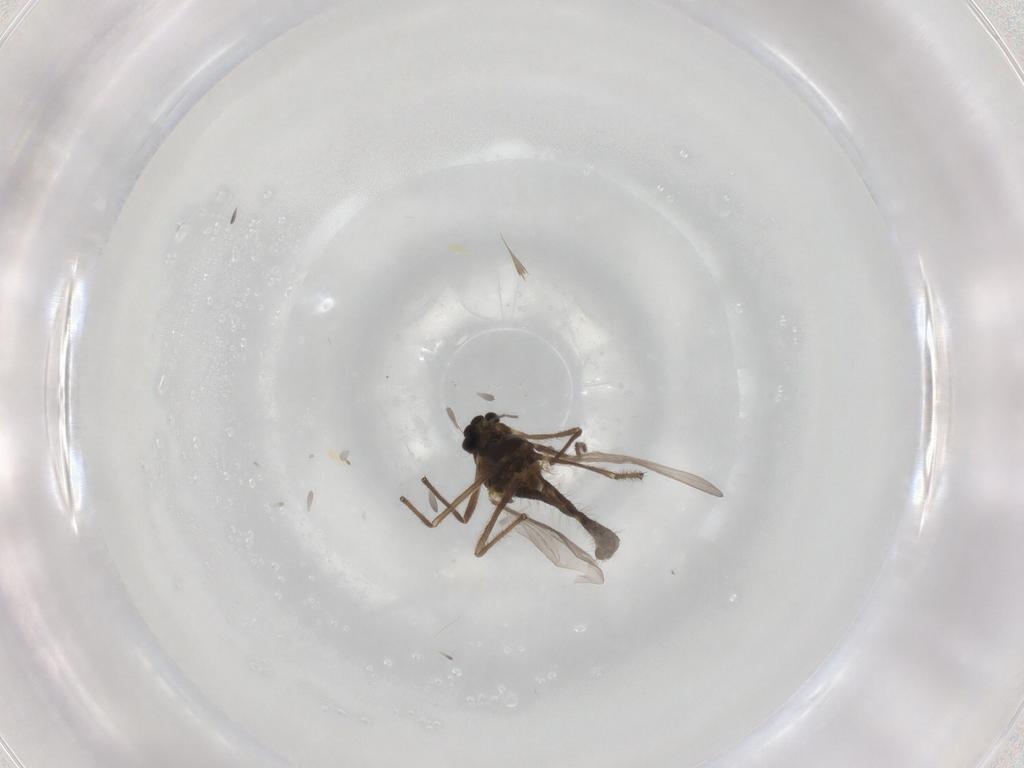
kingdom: Animalia
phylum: Arthropoda
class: Insecta
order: Diptera
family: Chironomidae
